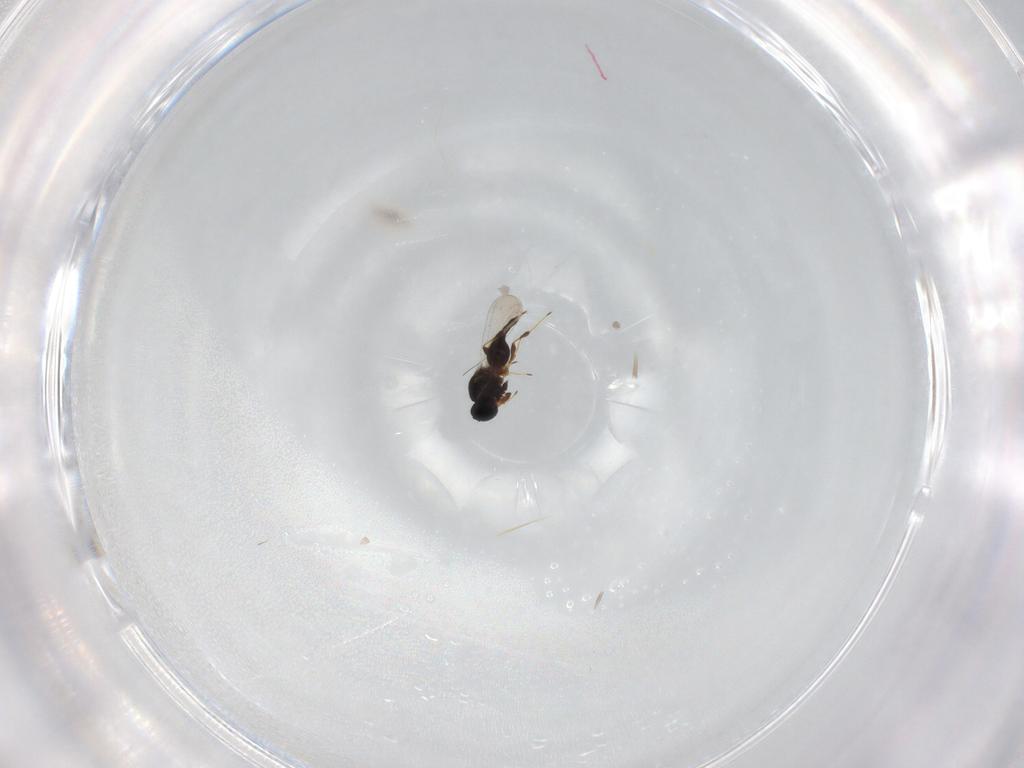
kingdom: Animalia
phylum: Arthropoda
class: Insecta
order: Hymenoptera
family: Platygastridae
